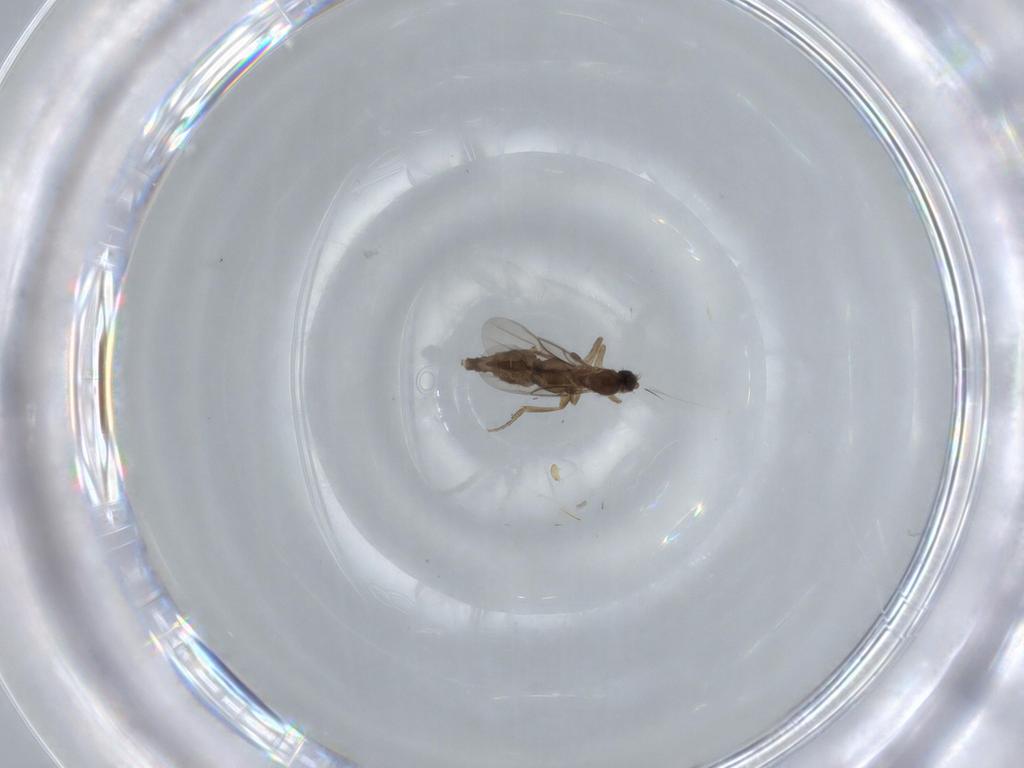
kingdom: Animalia
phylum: Arthropoda
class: Insecta
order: Diptera
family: Phoridae
